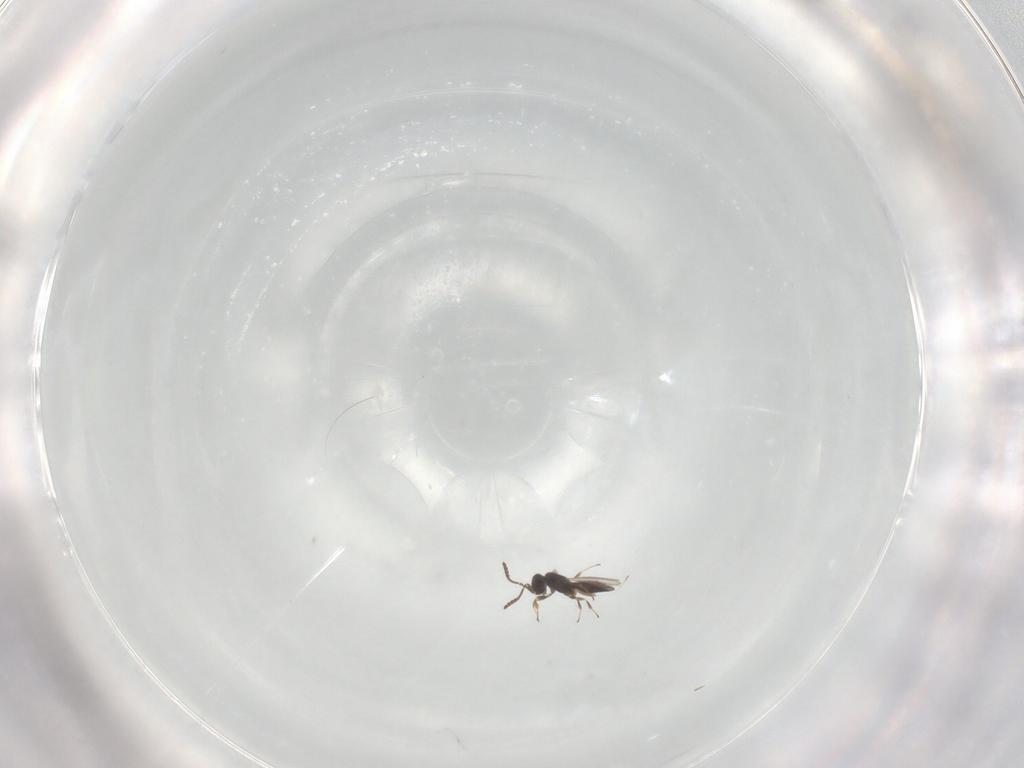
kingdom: Animalia
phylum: Arthropoda
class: Insecta
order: Hymenoptera
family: Scelionidae
